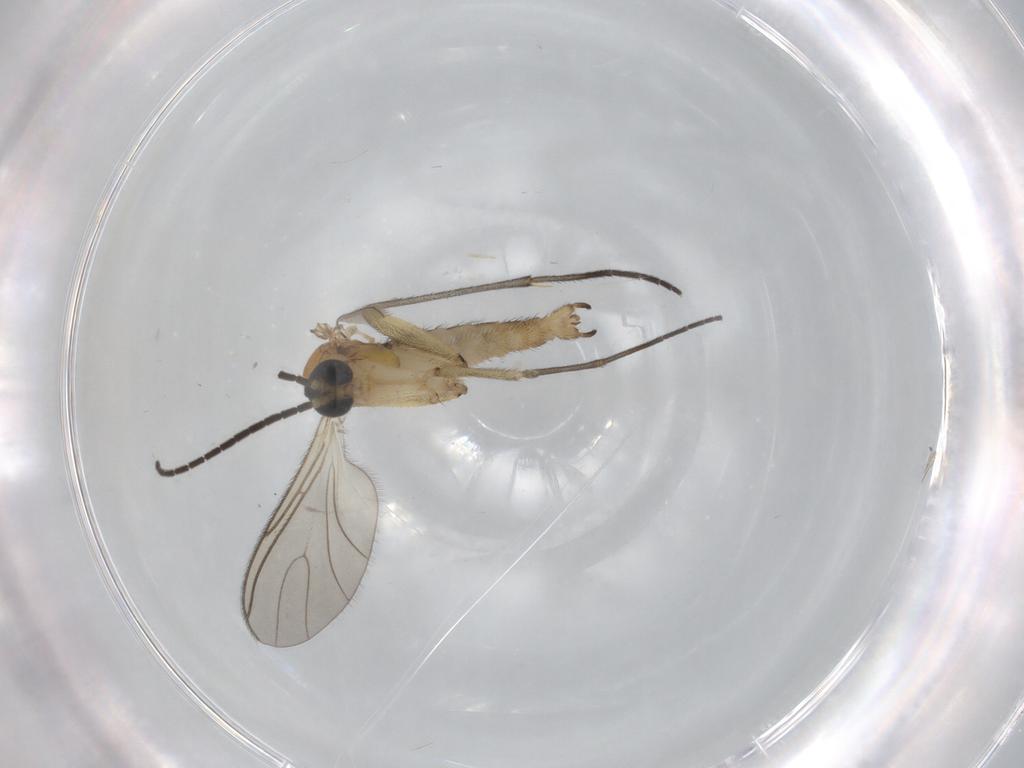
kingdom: Animalia
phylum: Arthropoda
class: Insecta
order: Diptera
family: Sciaridae
